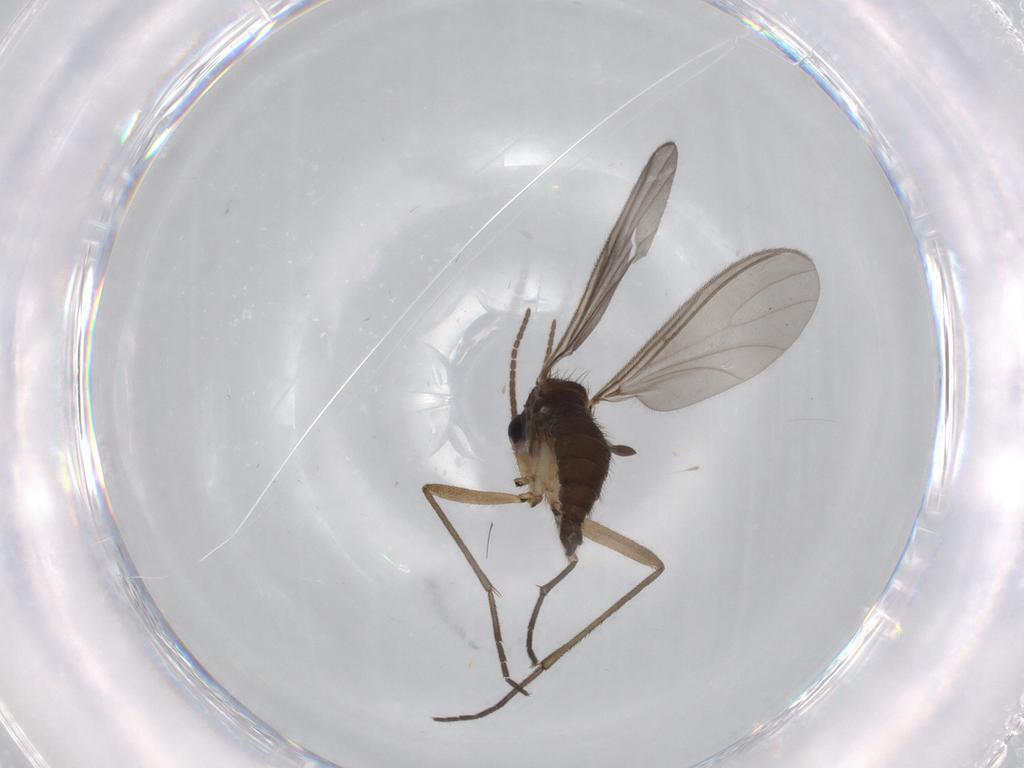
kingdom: Animalia
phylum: Arthropoda
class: Insecta
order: Diptera
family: Sciaridae
